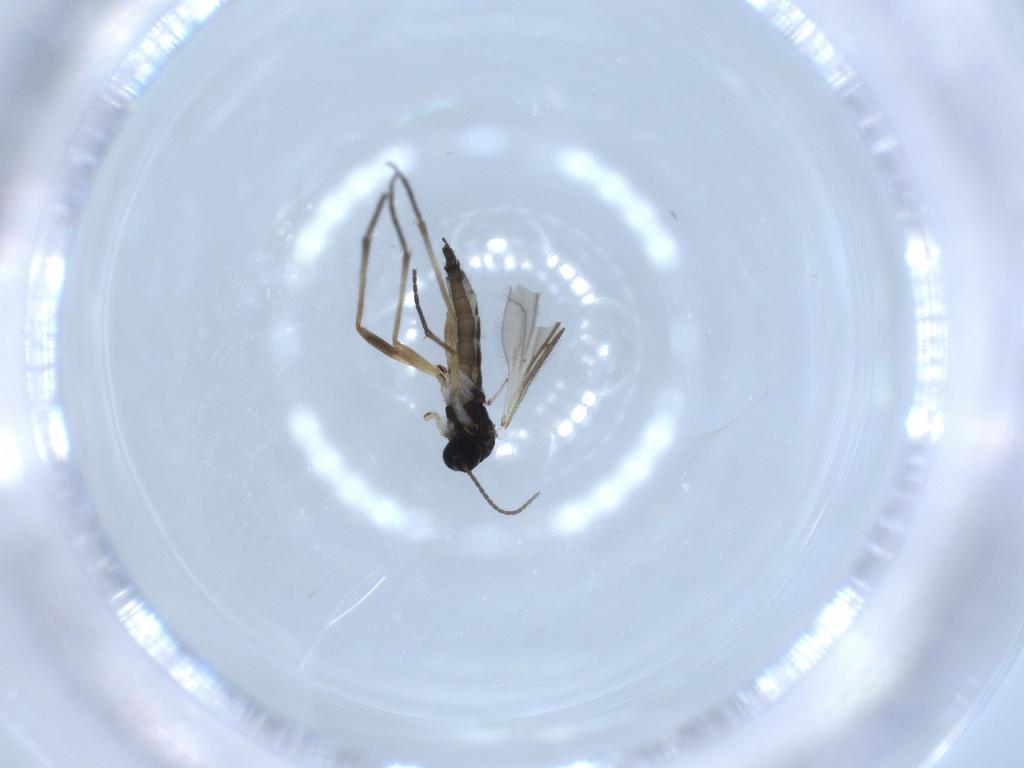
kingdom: Animalia
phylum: Arthropoda
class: Insecta
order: Diptera
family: Sciaridae
